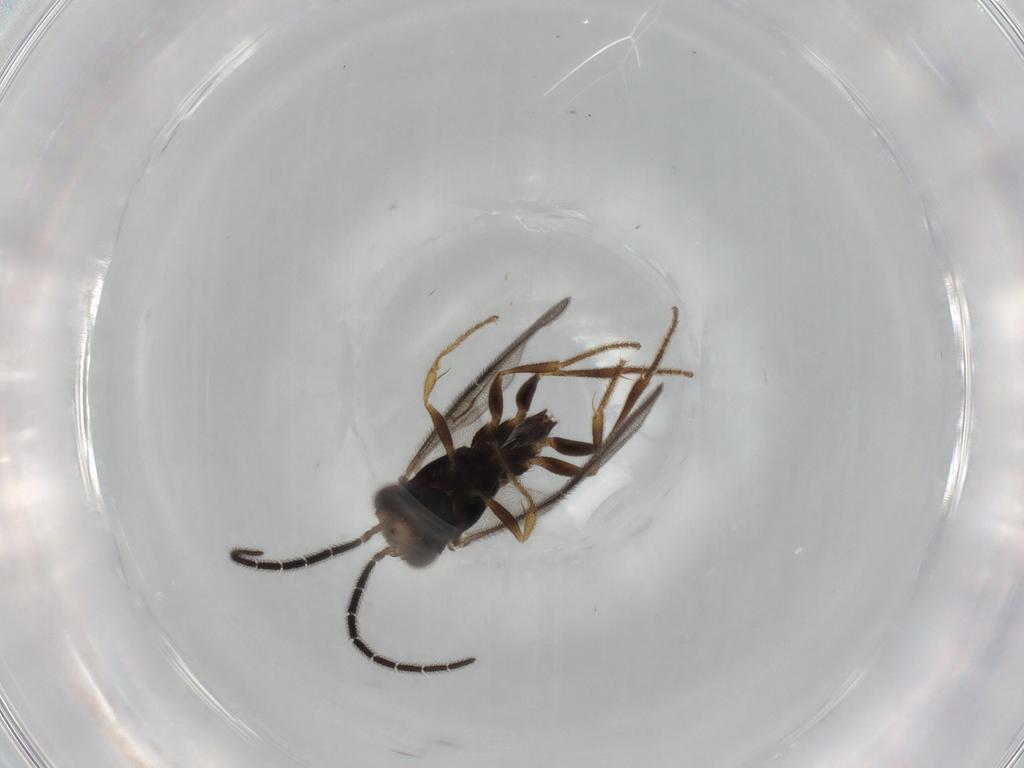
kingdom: Animalia
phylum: Arthropoda
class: Insecta
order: Hymenoptera
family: Dryinidae
